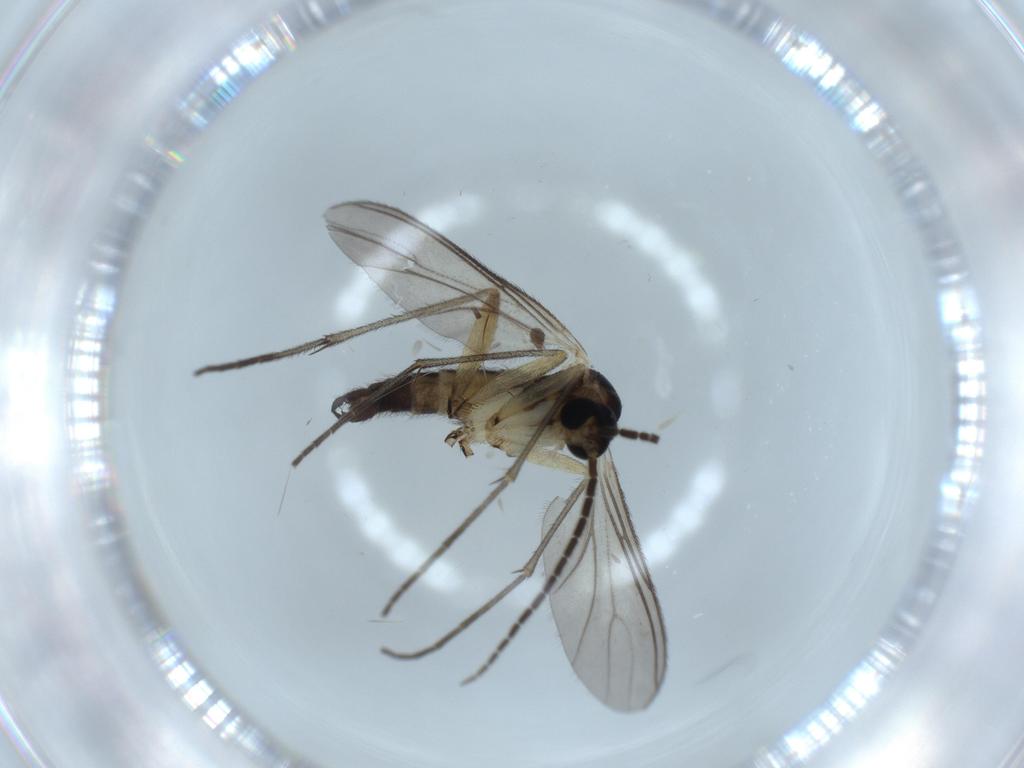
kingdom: Animalia
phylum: Arthropoda
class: Insecta
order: Diptera
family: Sciaridae
